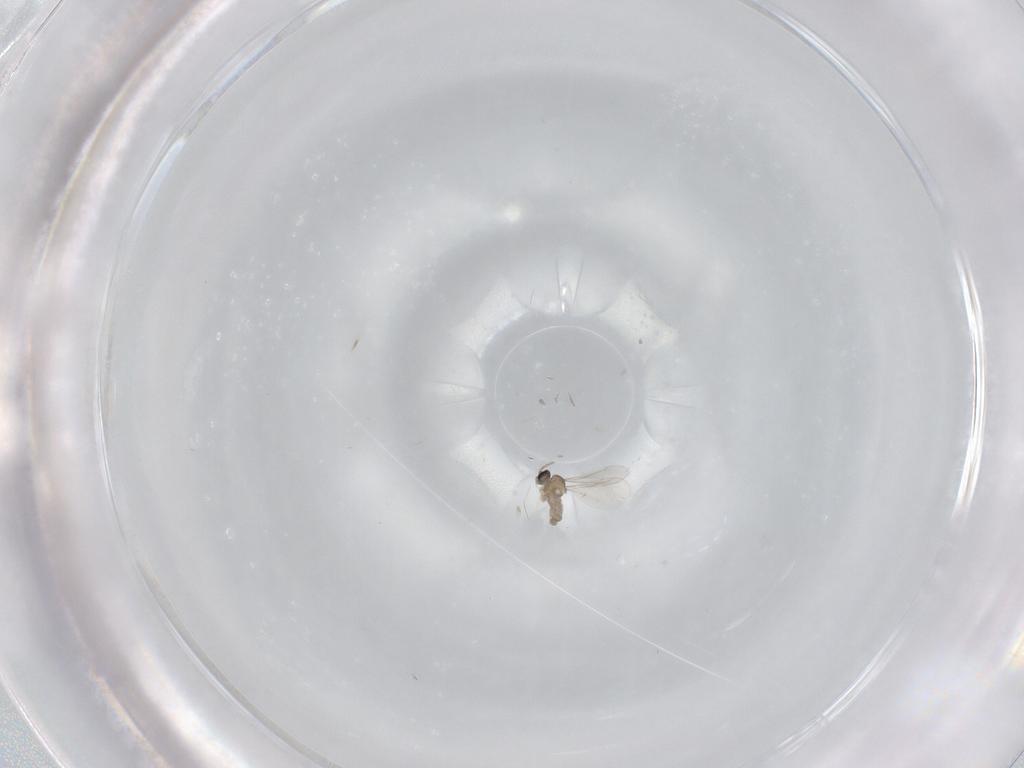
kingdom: Animalia
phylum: Arthropoda
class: Insecta
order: Diptera
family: Cecidomyiidae
